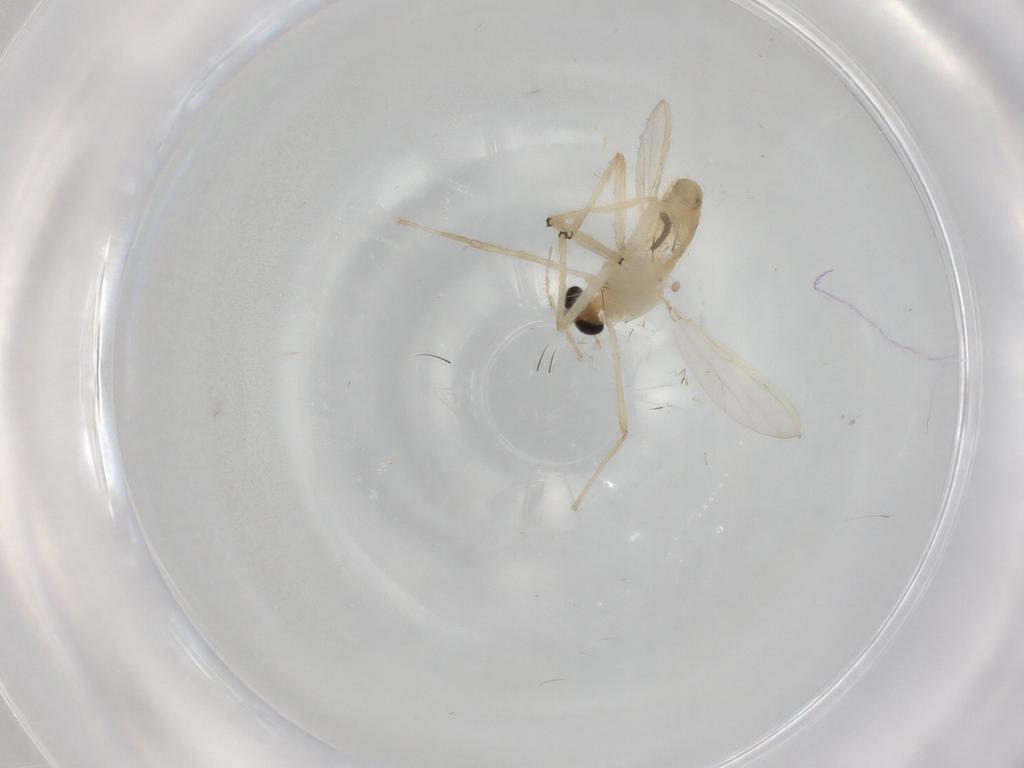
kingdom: Animalia
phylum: Arthropoda
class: Insecta
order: Diptera
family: Chironomidae
